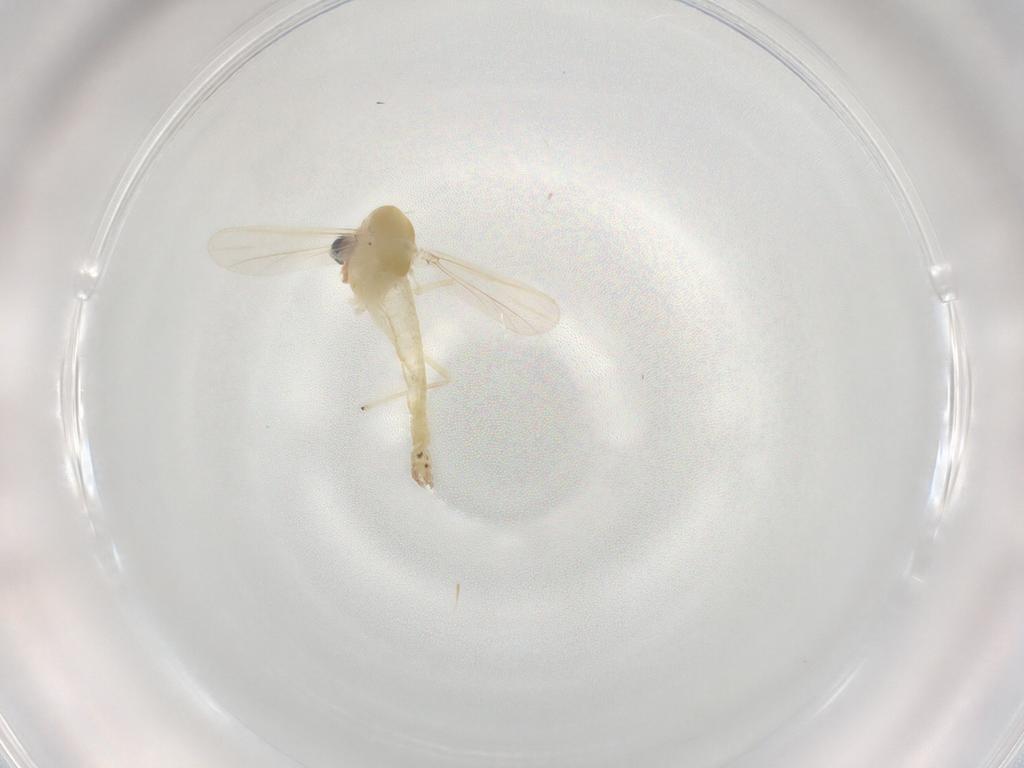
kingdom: Animalia
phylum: Arthropoda
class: Insecta
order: Diptera
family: Chironomidae
